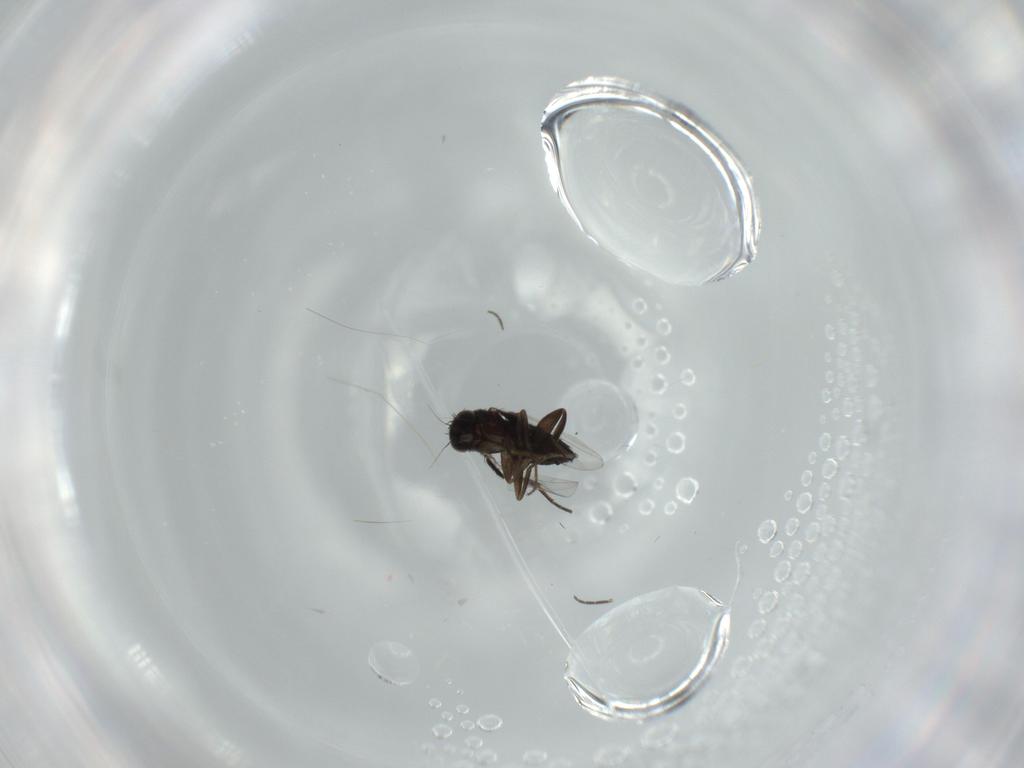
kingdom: Animalia
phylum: Arthropoda
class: Insecta
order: Diptera
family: Phoridae
